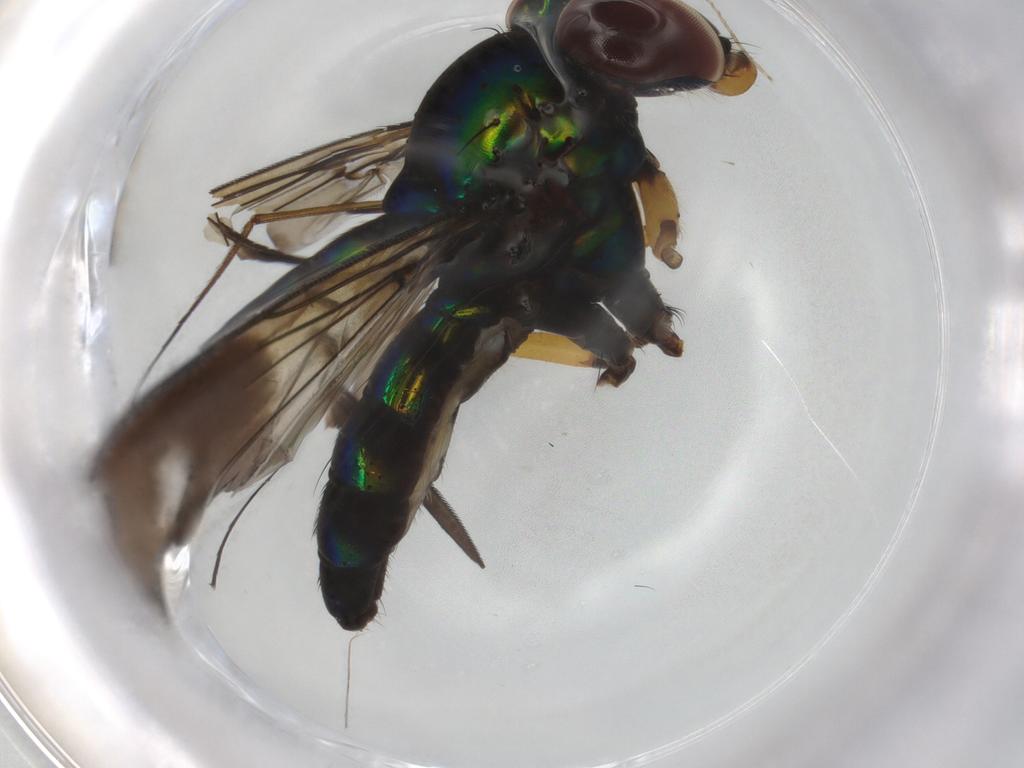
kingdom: Animalia
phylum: Arthropoda
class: Insecta
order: Diptera
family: Dolichopodidae
